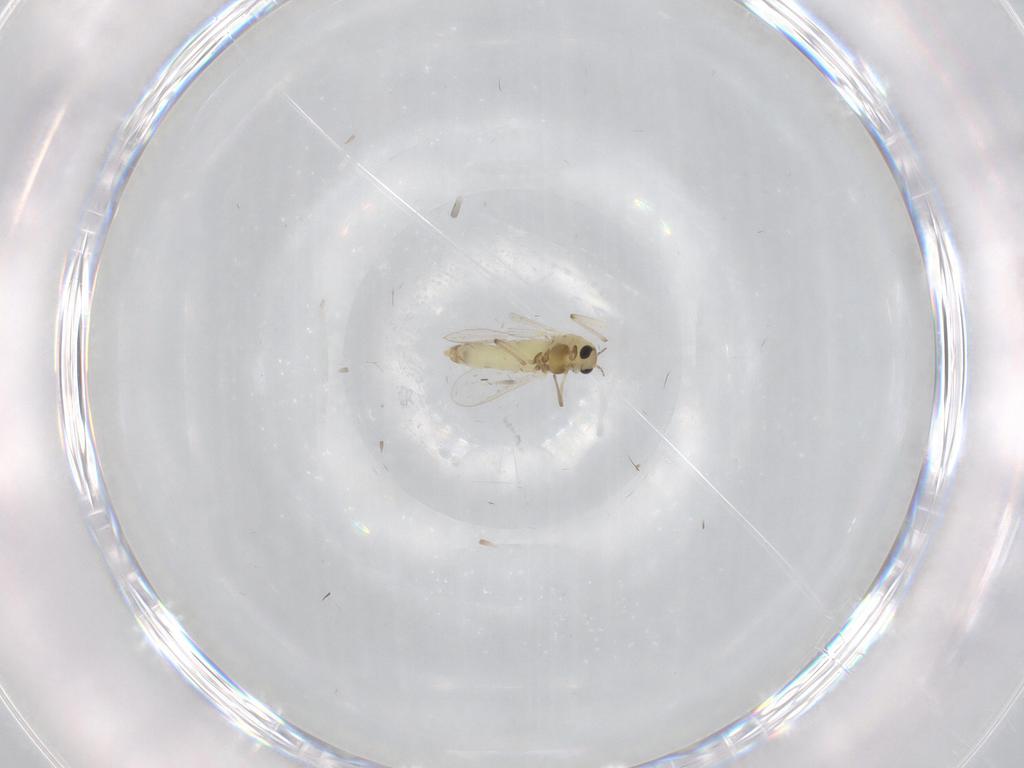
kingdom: Animalia
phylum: Arthropoda
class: Insecta
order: Diptera
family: Chironomidae
